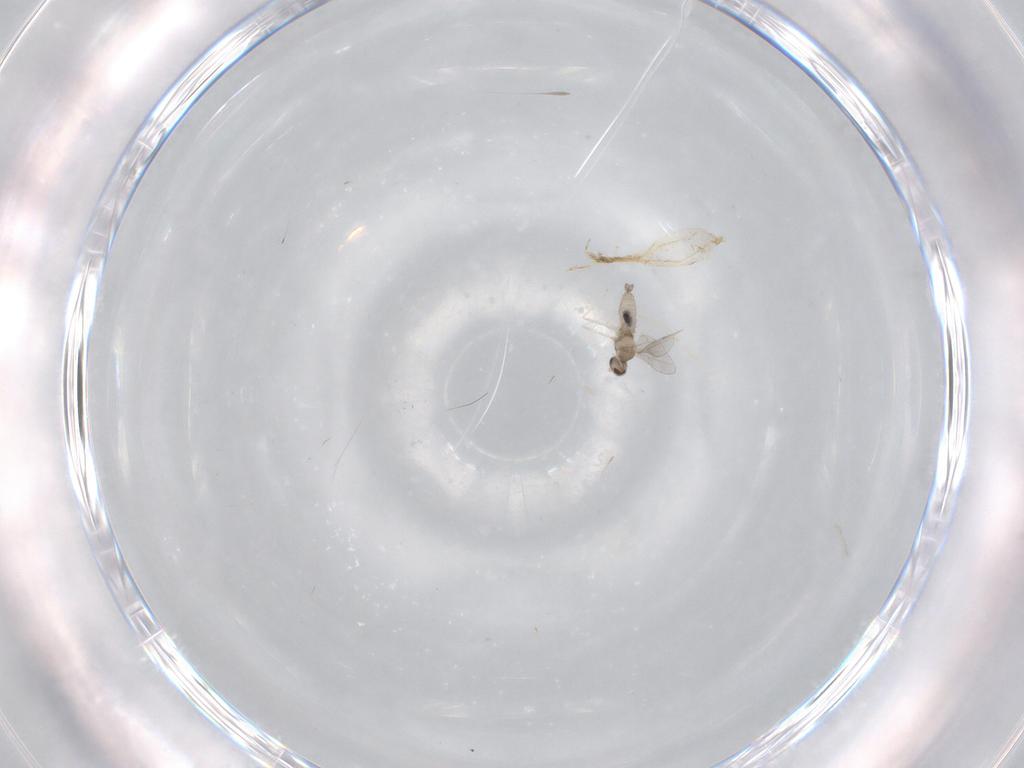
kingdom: Animalia
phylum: Arthropoda
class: Insecta
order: Diptera
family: Cecidomyiidae
